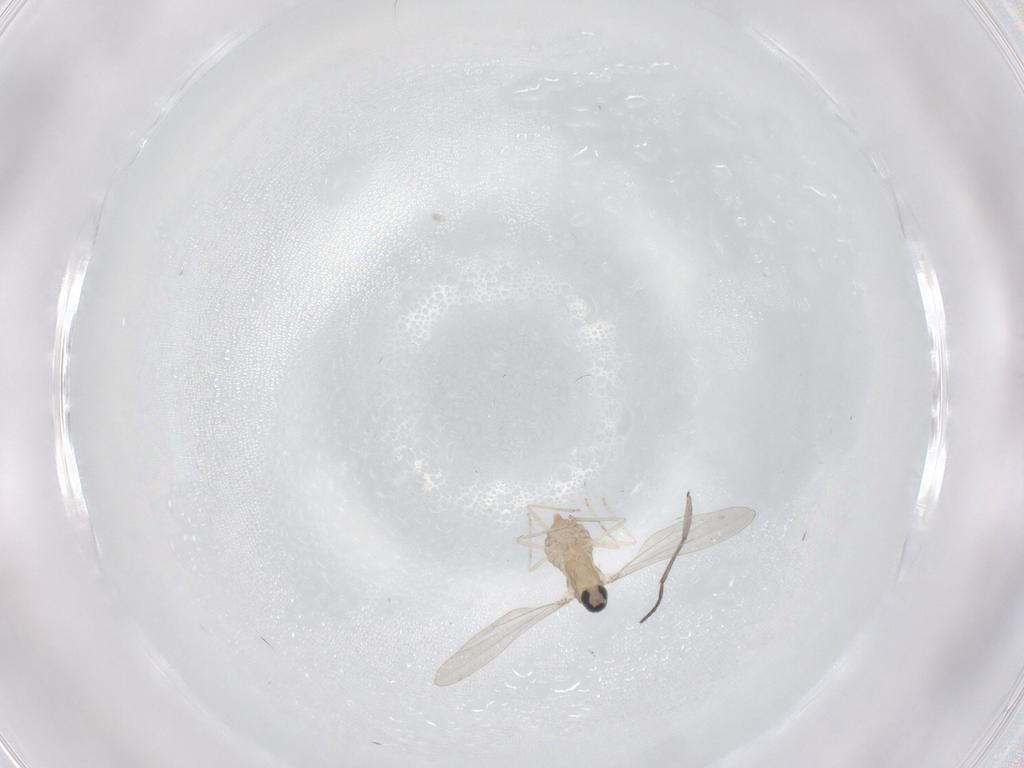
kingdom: Animalia
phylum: Arthropoda
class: Insecta
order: Diptera
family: Cecidomyiidae
